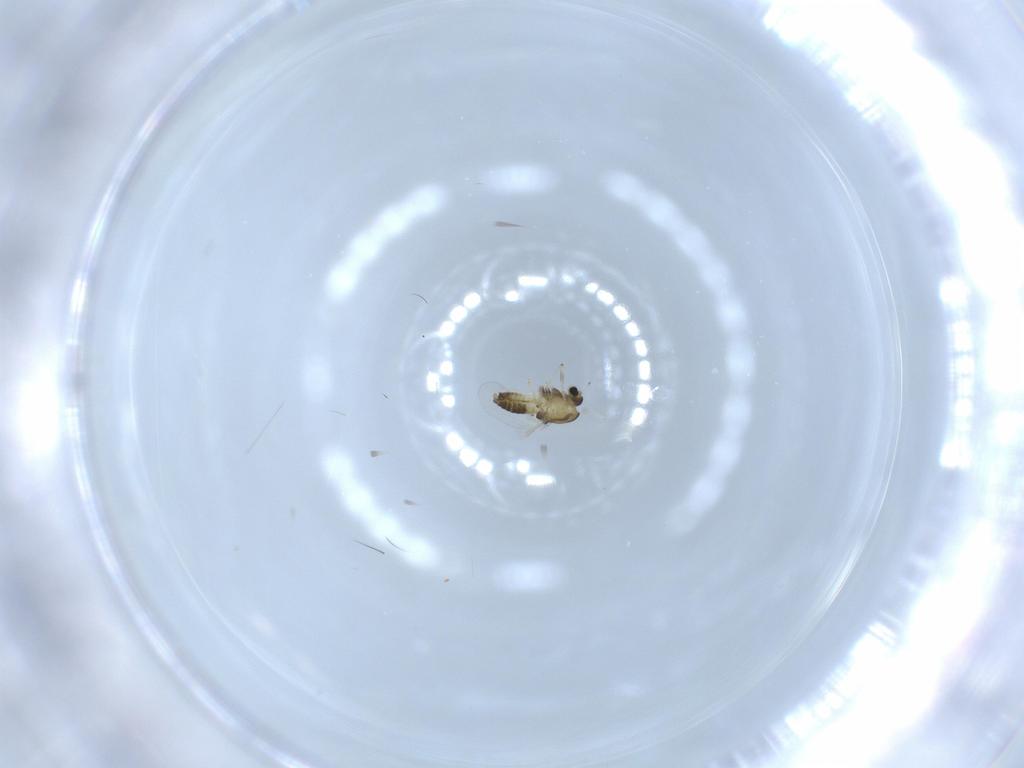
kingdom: Animalia
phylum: Arthropoda
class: Insecta
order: Diptera
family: Chironomidae
